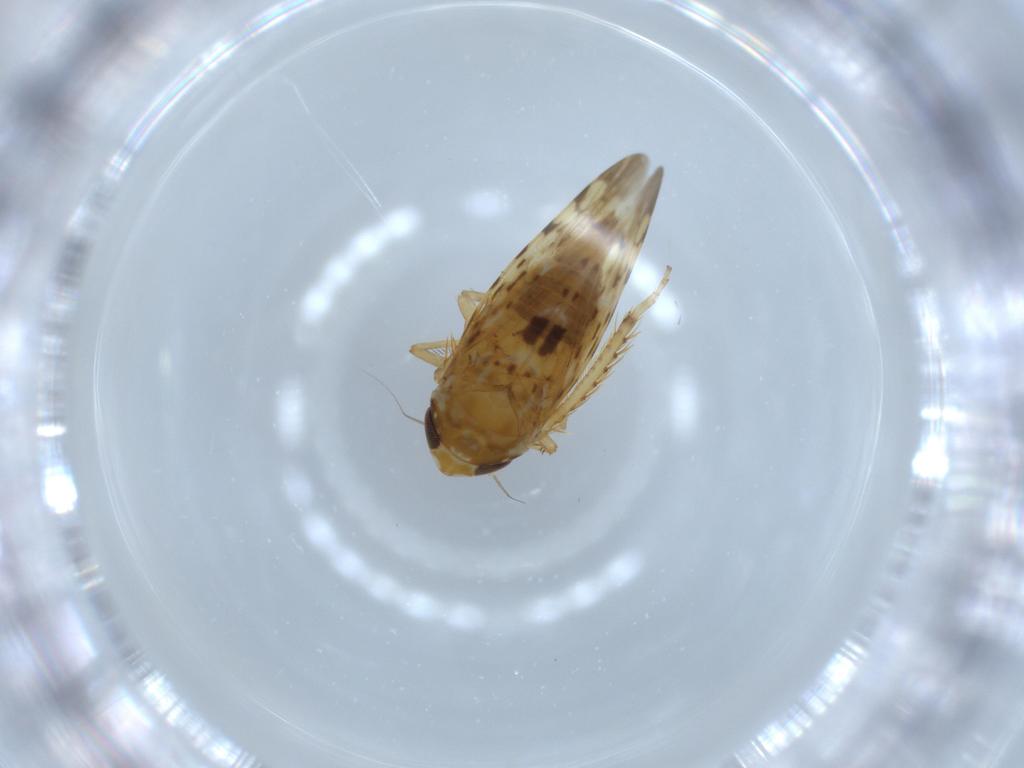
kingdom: Animalia
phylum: Arthropoda
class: Insecta
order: Hemiptera
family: Cicadellidae
